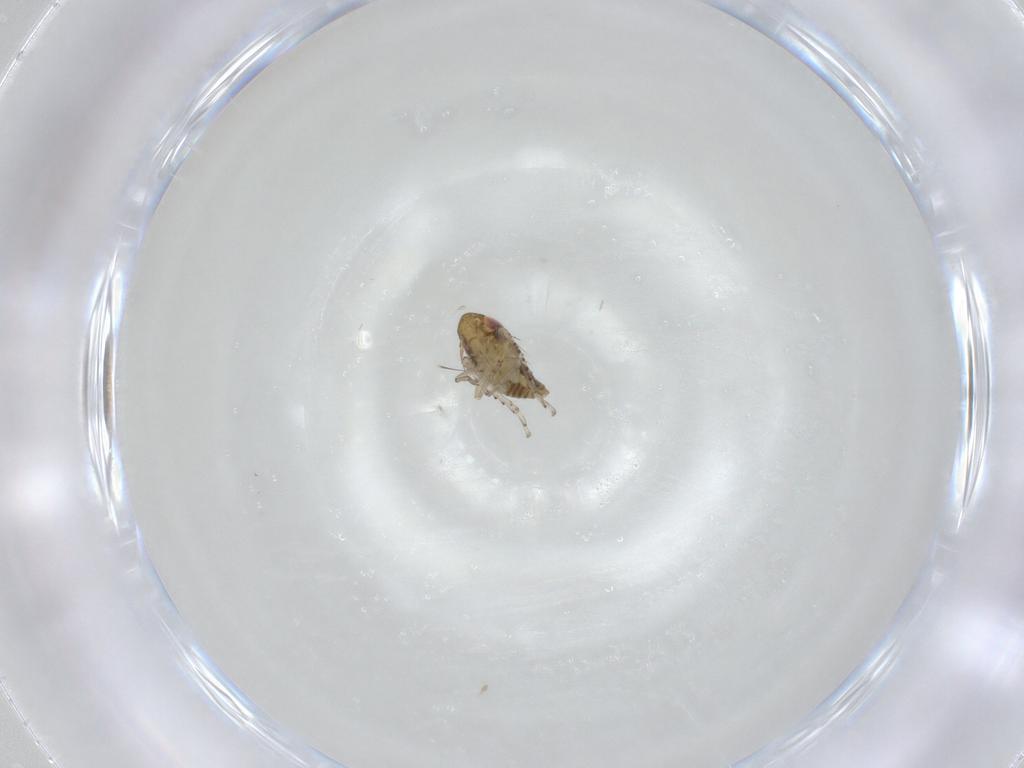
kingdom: Animalia
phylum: Arthropoda
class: Insecta
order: Hemiptera
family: Cicadellidae
